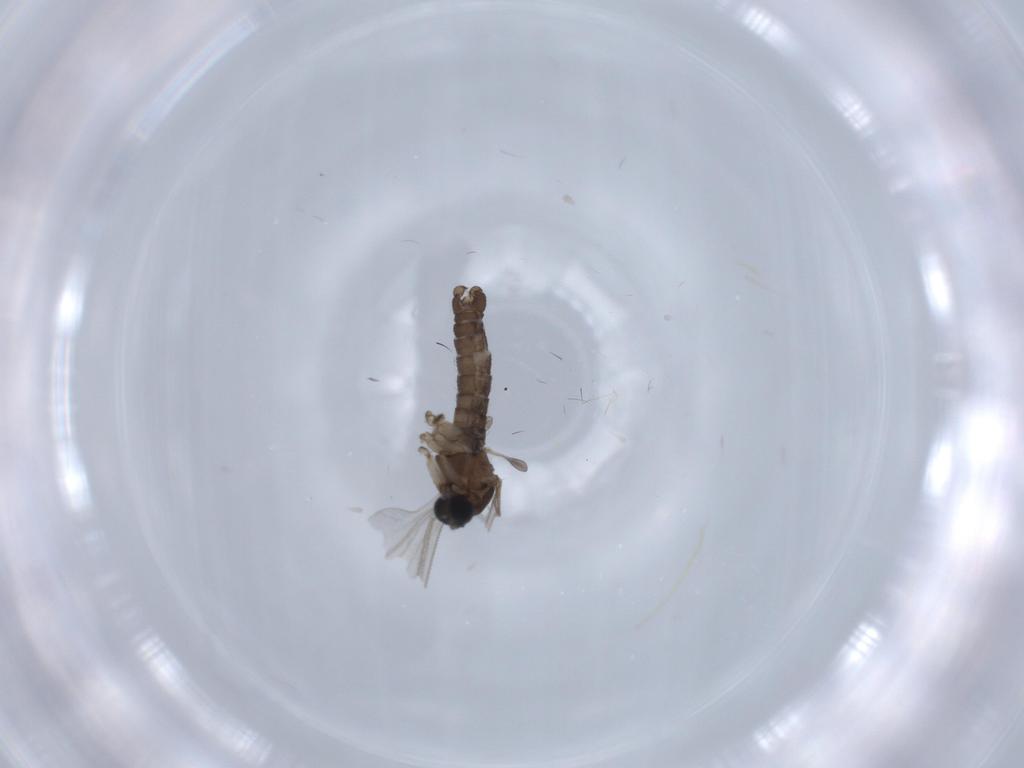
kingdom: Animalia
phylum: Arthropoda
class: Insecta
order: Diptera
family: Sciaridae
